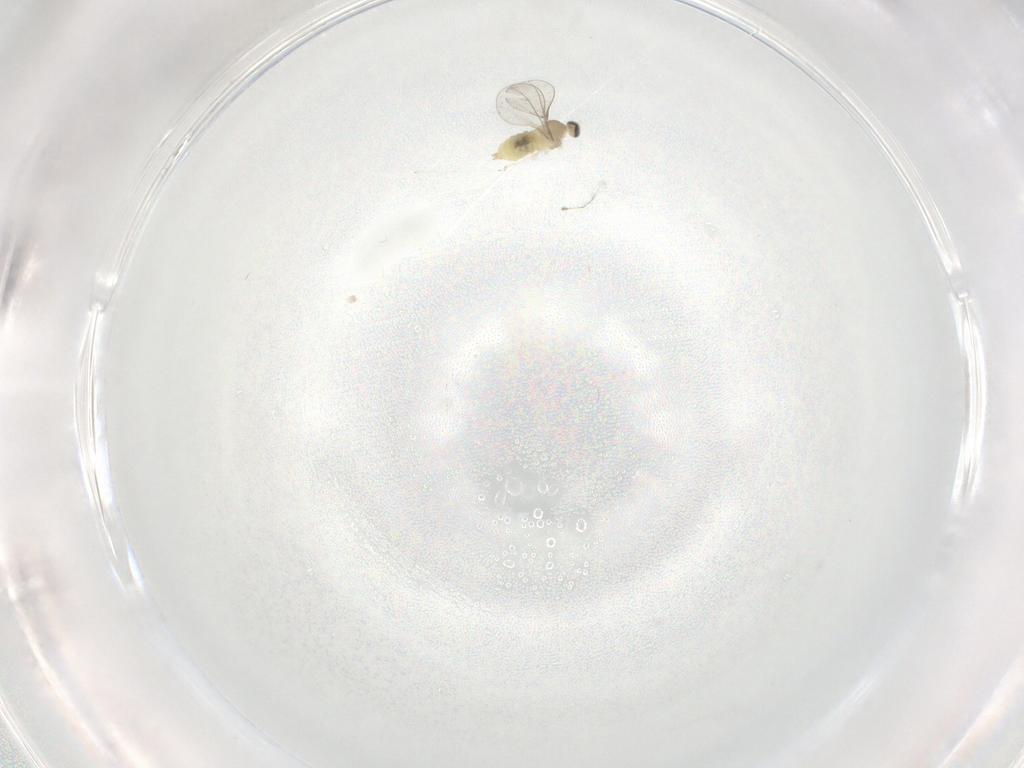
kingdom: Animalia
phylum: Arthropoda
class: Insecta
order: Diptera
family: Cecidomyiidae
